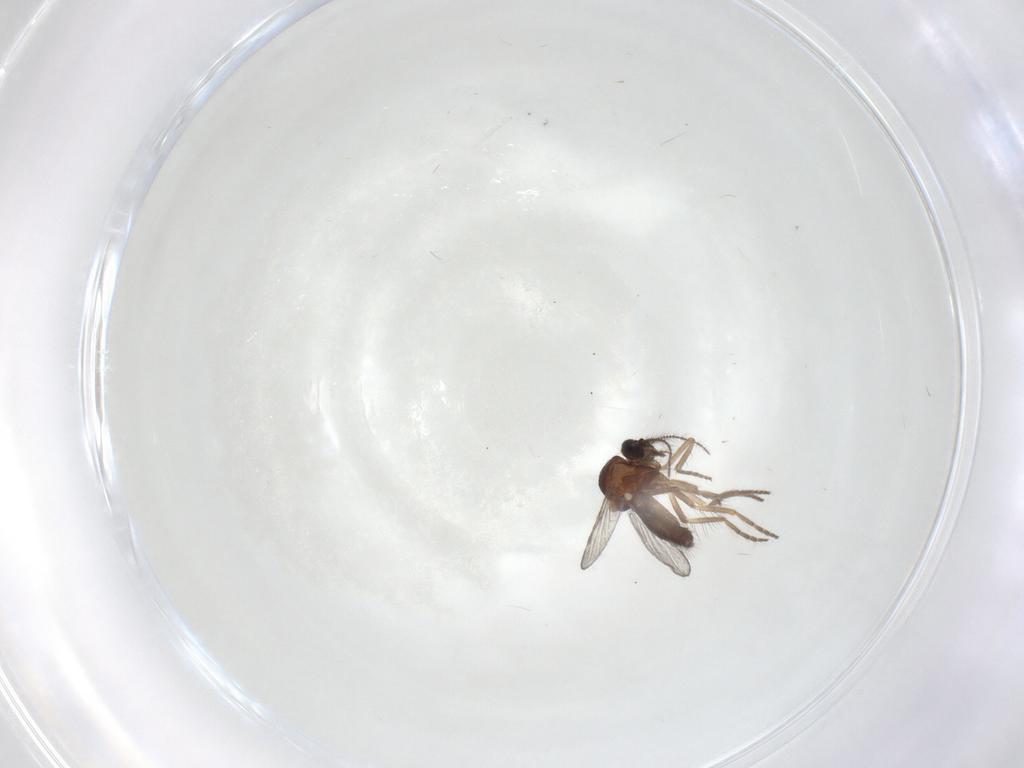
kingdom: Animalia
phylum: Arthropoda
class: Insecta
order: Diptera
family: Ceratopogonidae
